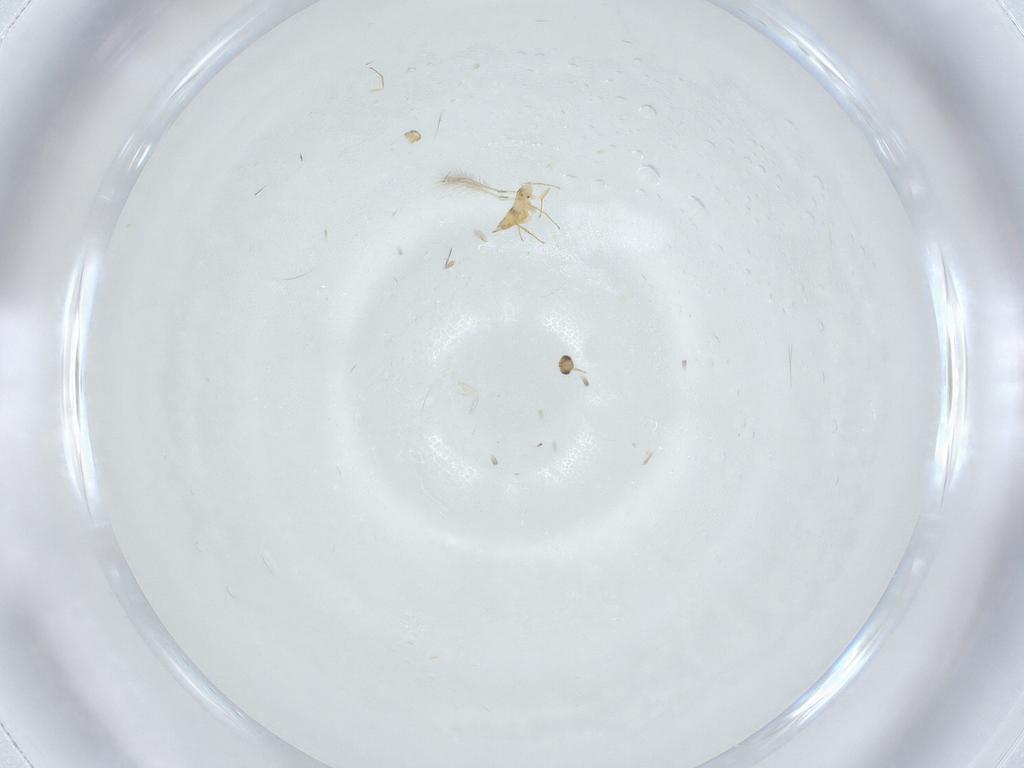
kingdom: Animalia
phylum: Arthropoda
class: Insecta
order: Hymenoptera
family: Mymaridae
